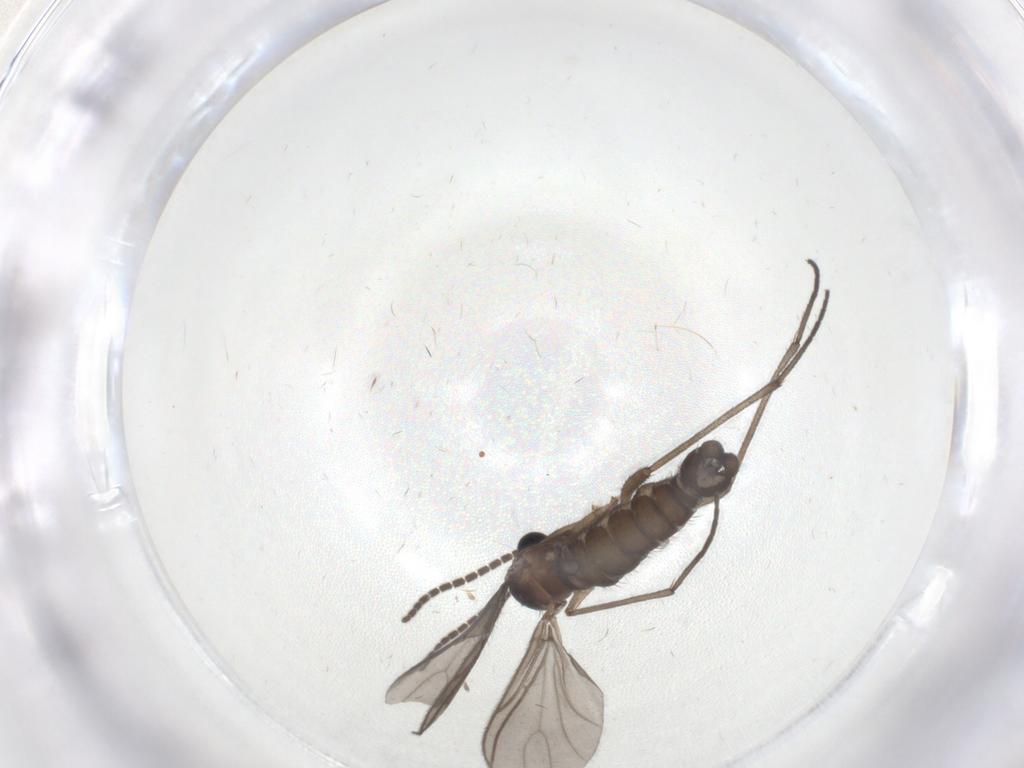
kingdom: Animalia
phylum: Arthropoda
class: Insecta
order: Diptera
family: Sciaridae
